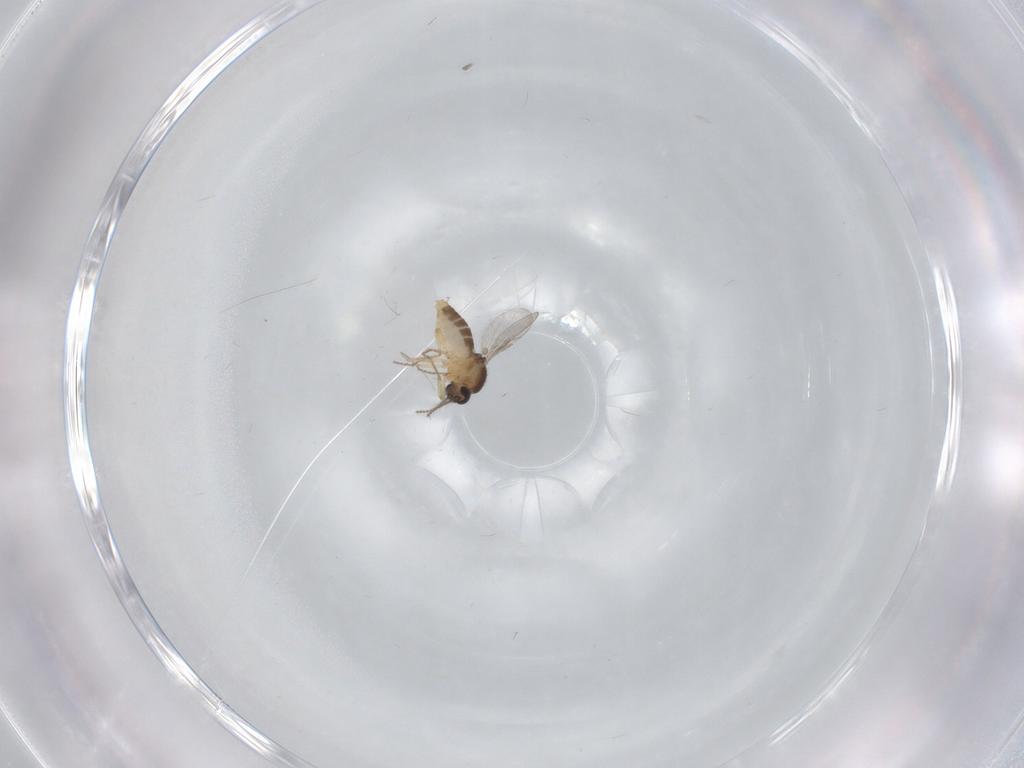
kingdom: Animalia
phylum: Arthropoda
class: Insecta
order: Diptera
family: Ceratopogonidae
